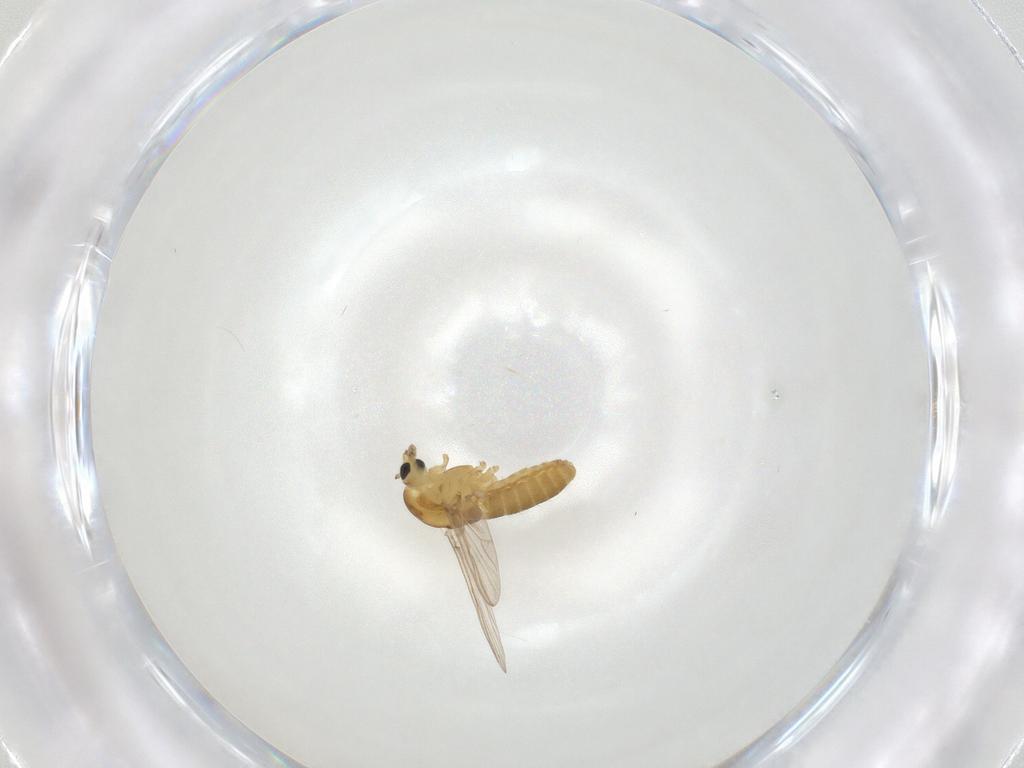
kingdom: Animalia
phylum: Arthropoda
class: Insecta
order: Diptera
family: Chironomidae
